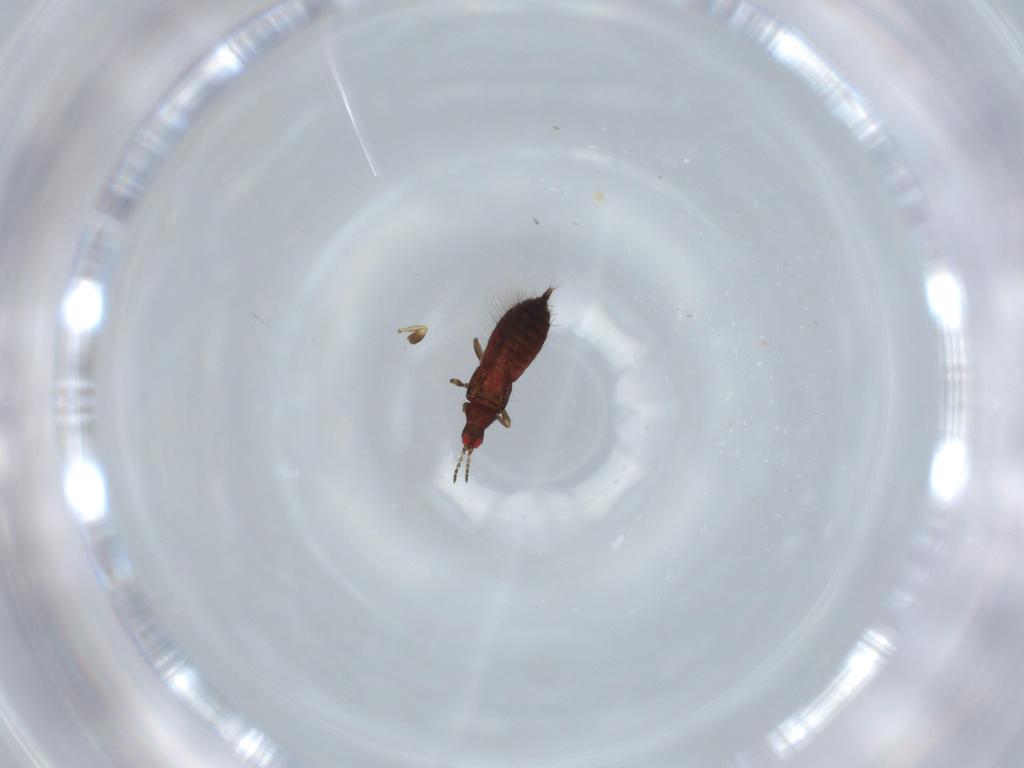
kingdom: Animalia
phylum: Arthropoda
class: Insecta
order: Thysanoptera
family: Phlaeothripidae
